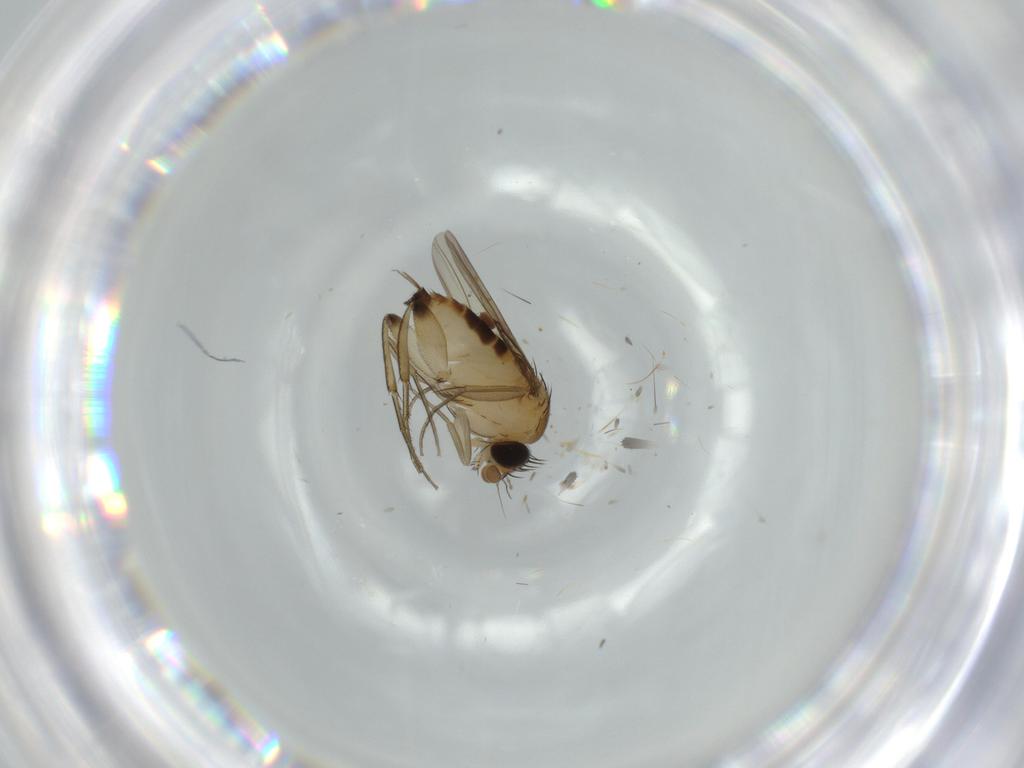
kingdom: Animalia
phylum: Arthropoda
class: Insecta
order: Diptera
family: Phoridae
